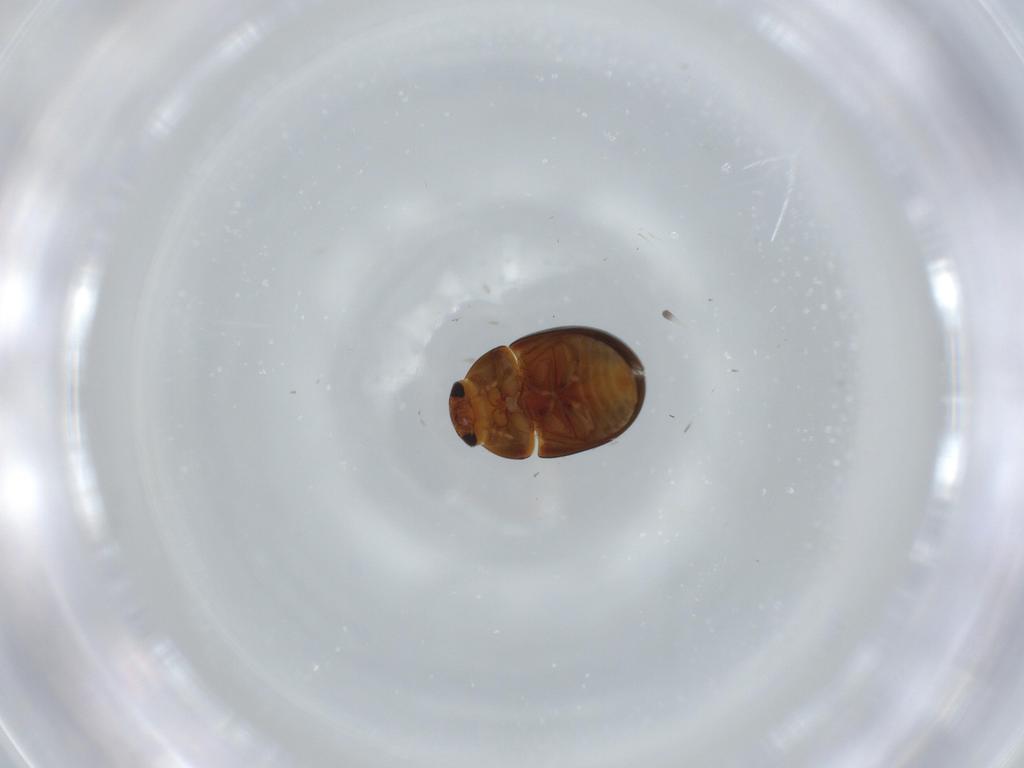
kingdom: Animalia
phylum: Arthropoda
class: Insecta
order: Coleoptera
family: Chrysomelidae
